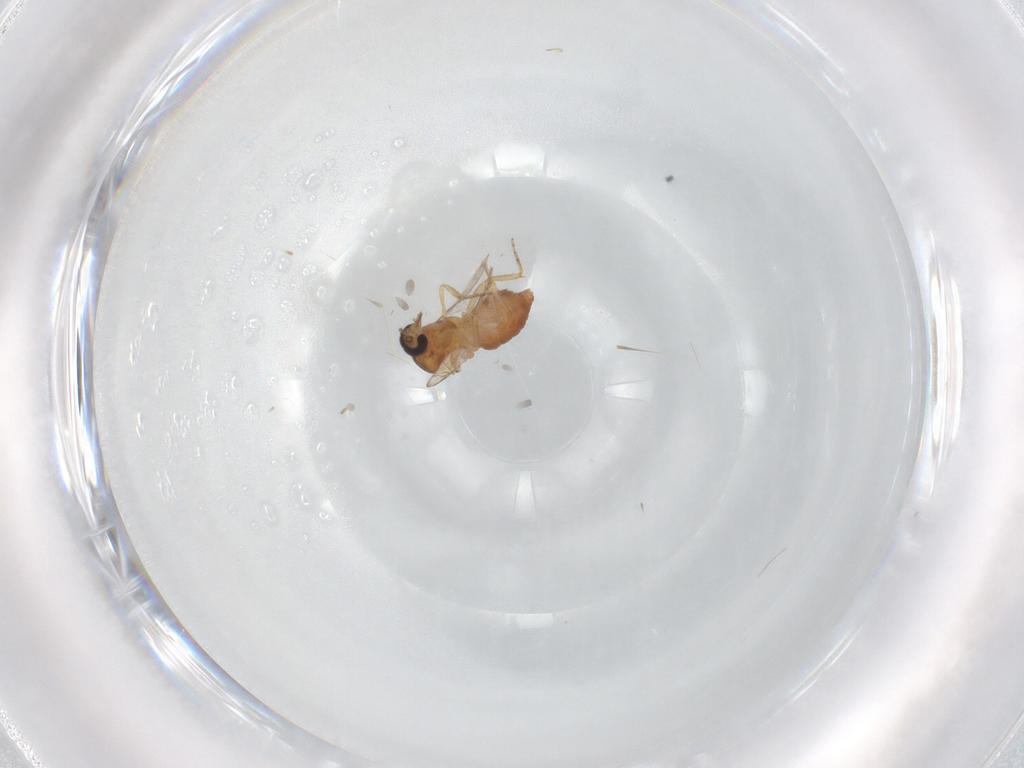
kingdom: Animalia
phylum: Arthropoda
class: Insecta
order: Diptera
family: Ceratopogonidae
